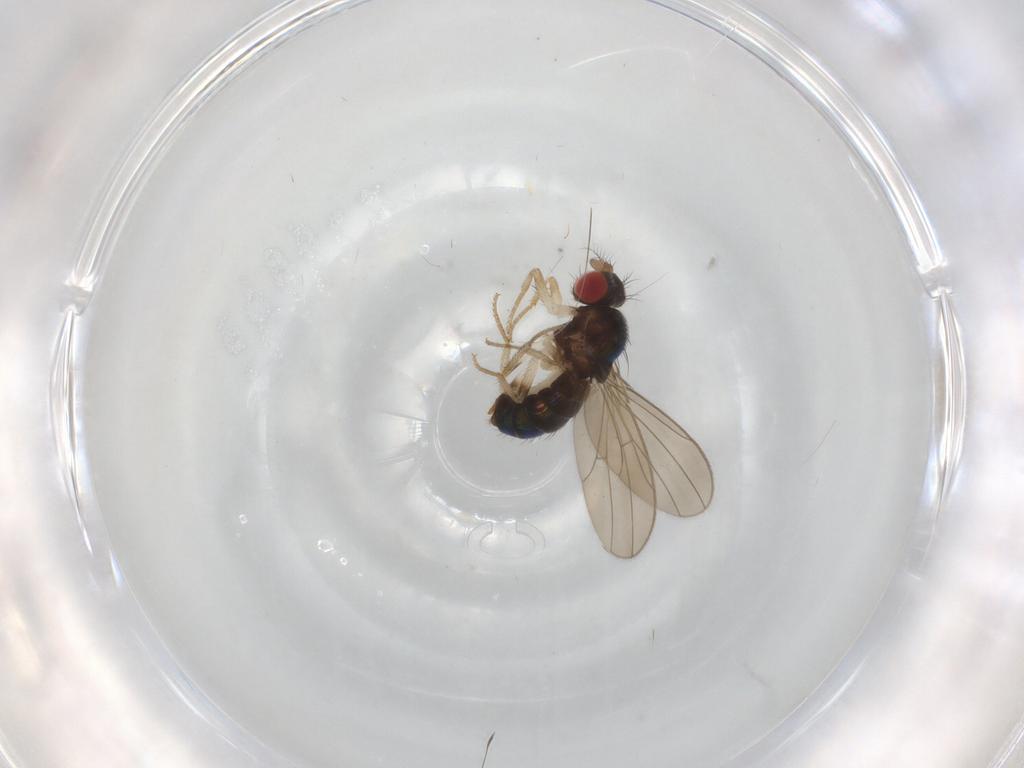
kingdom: Animalia
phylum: Arthropoda
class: Insecta
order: Diptera
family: Drosophilidae
